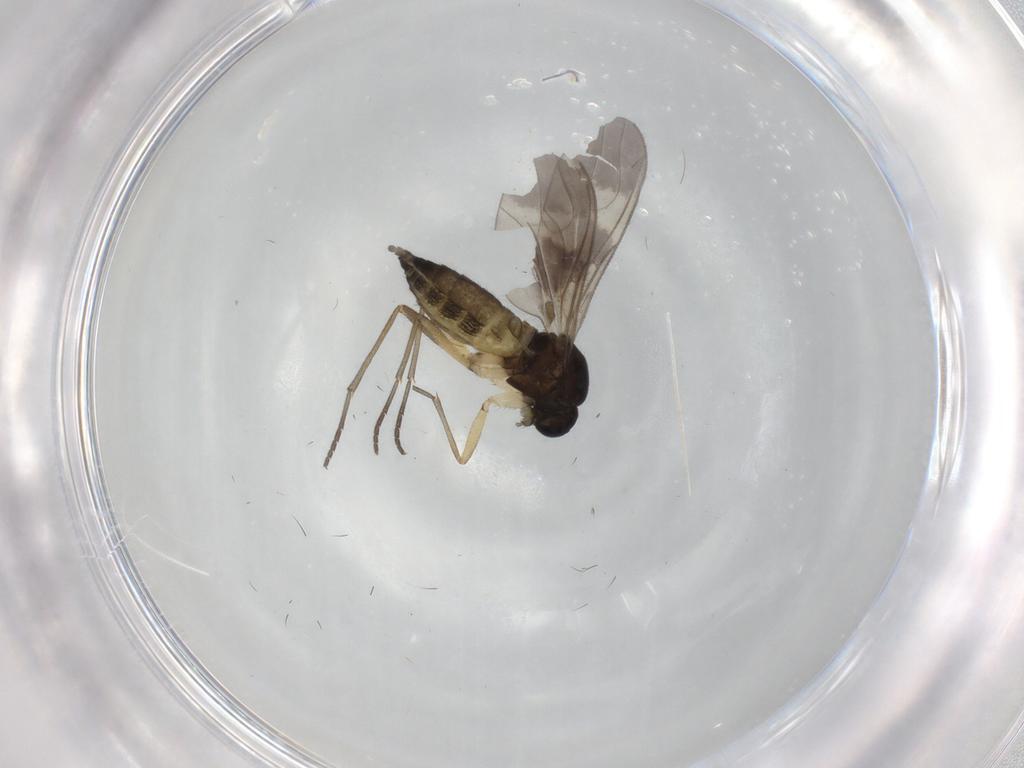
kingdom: Animalia
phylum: Arthropoda
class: Insecta
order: Diptera
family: Sciaridae
